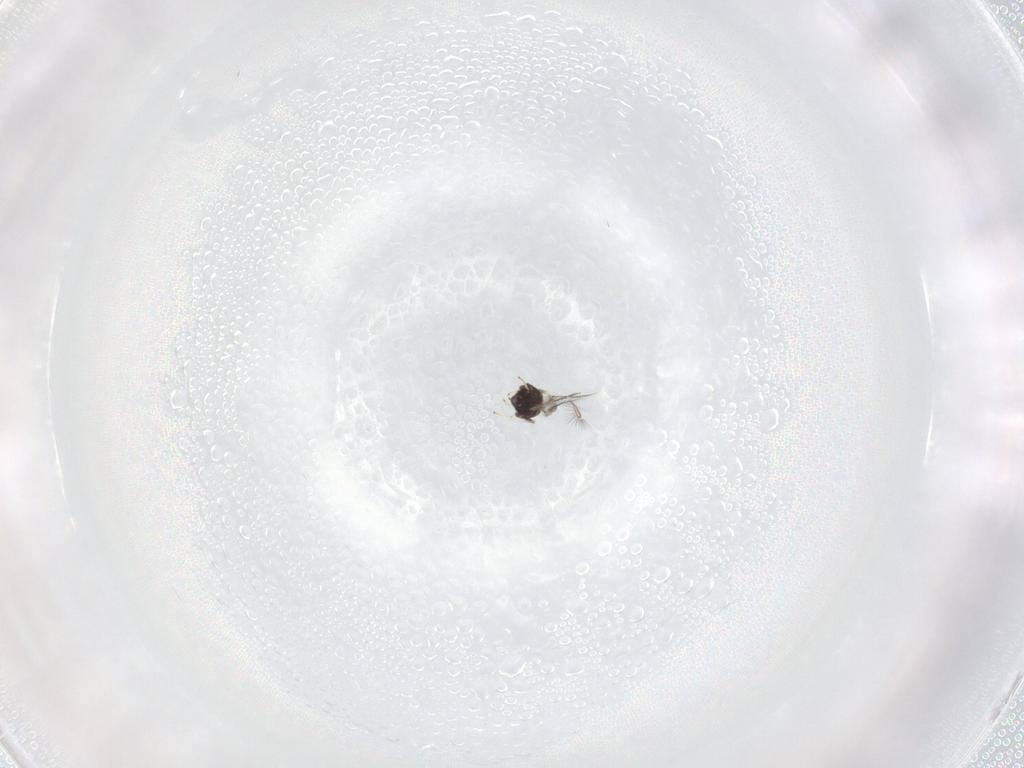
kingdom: Animalia
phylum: Arthropoda
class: Insecta
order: Hymenoptera
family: Mymaridae
